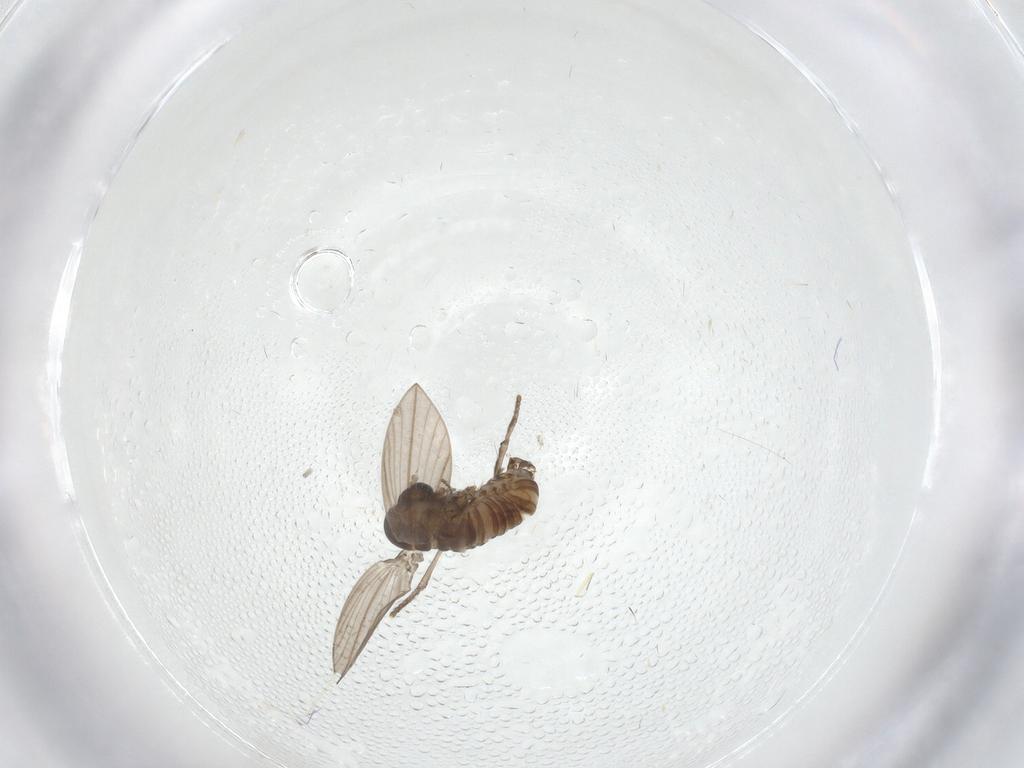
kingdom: Animalia
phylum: Arthropoda
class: Insecta
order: Diptera
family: Psychodidae
